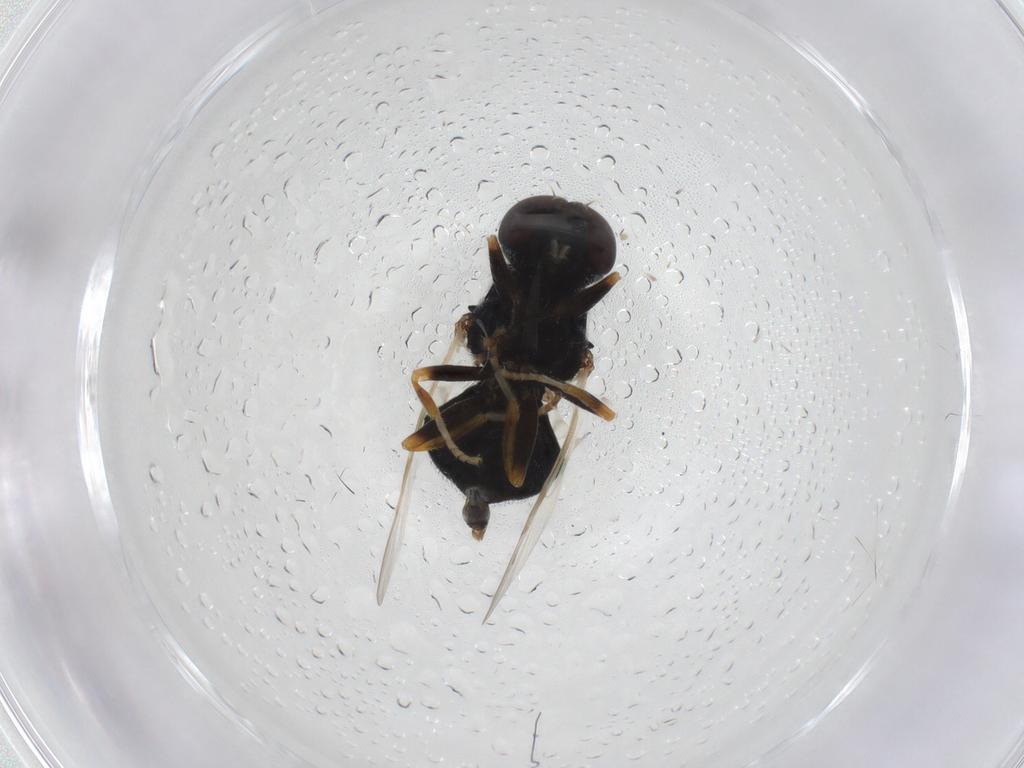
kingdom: Animalia
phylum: Arthropoda
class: Insecta
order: Diptera
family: Stratiomyidae
